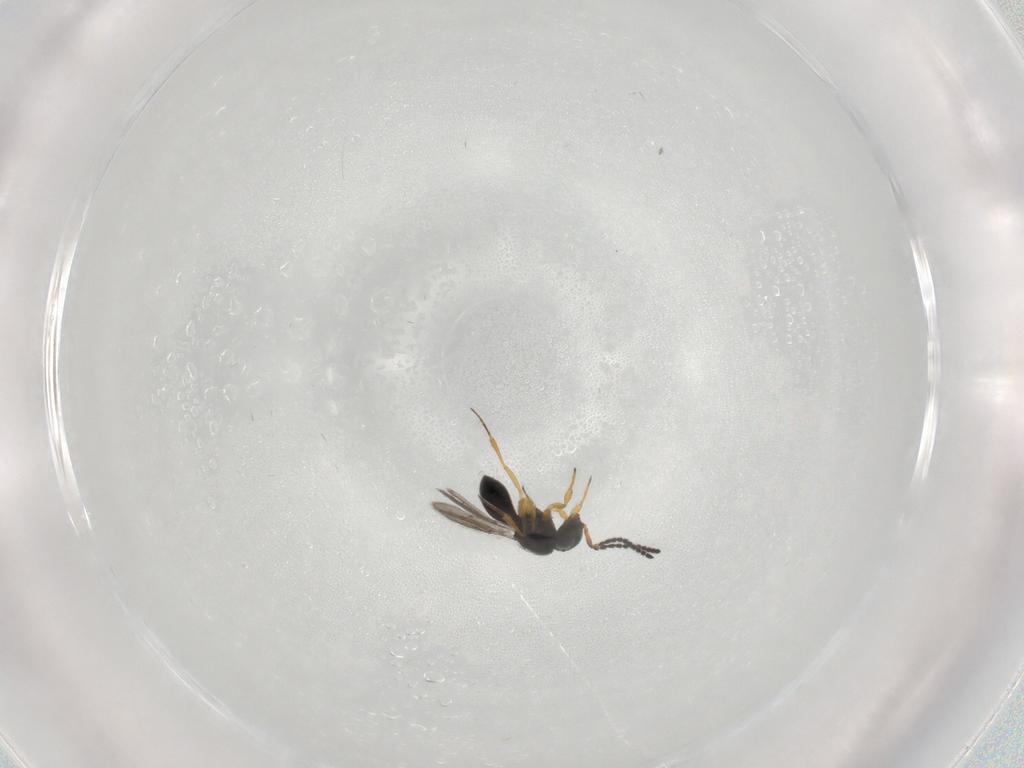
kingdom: Animalia
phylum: Arthropoda
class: Insecta
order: Hymenoptera
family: Scelionidae
